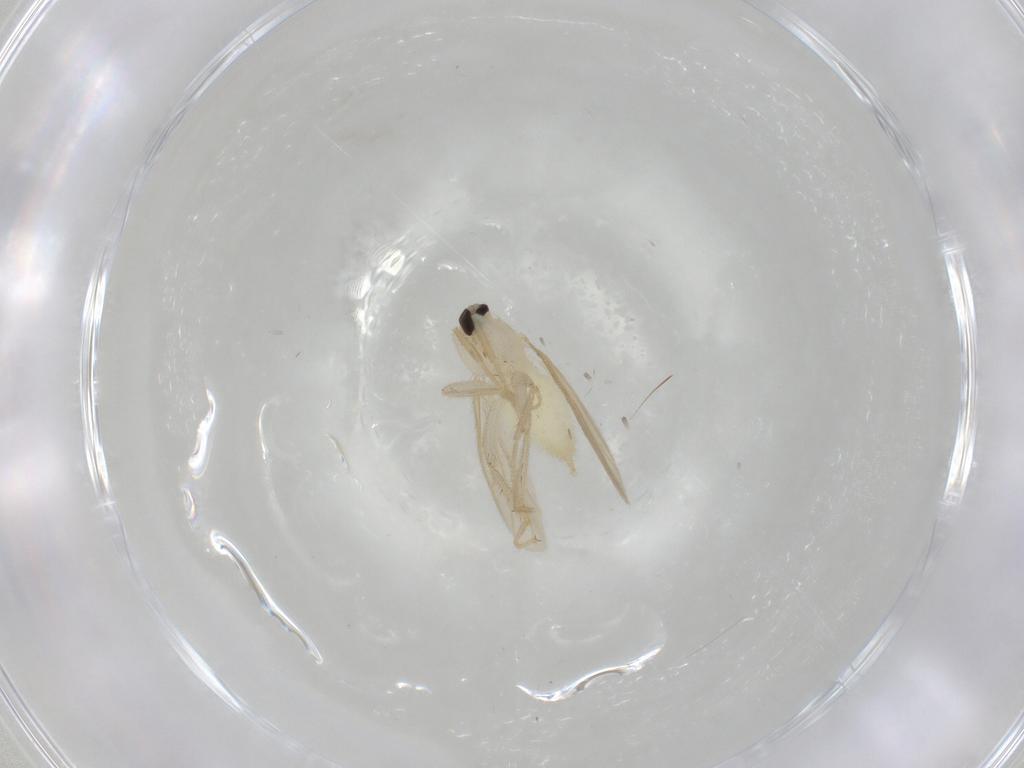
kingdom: Animalia
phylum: Arthropoda
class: Insecta
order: Diptera
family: Hybotidae
